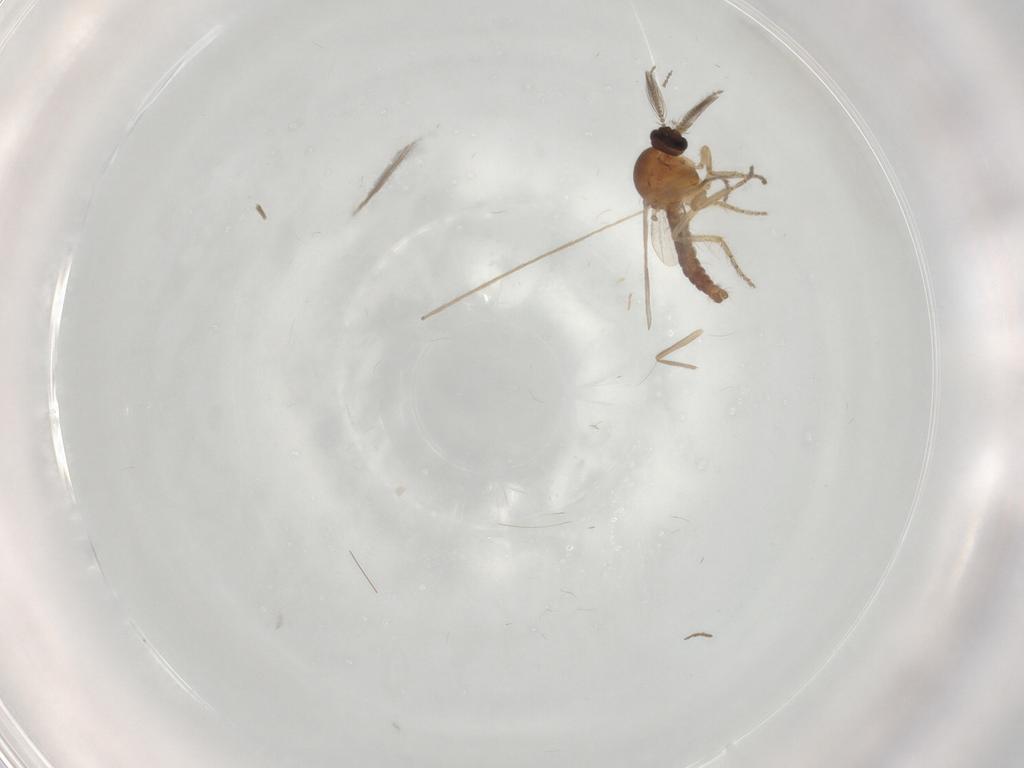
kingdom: Animalia
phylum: Arthropoda
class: Insecta
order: Diptera
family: Ceratopogonidae
